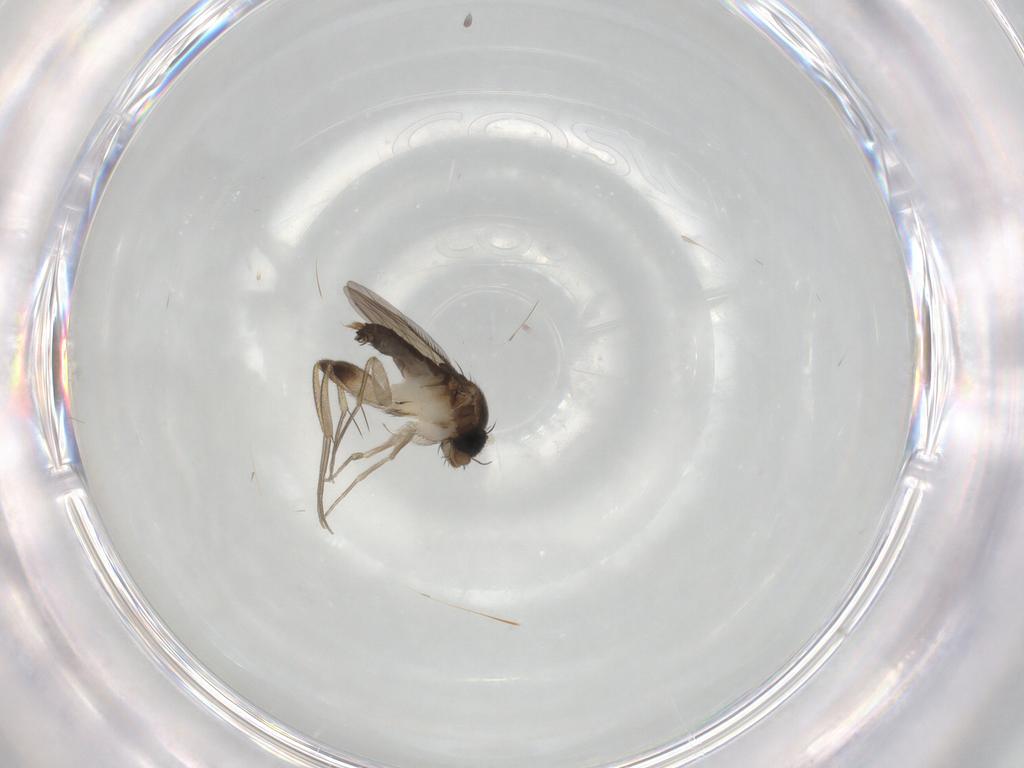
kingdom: Animalia
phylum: Arthropoda
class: Insecta
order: Diptera
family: Phoridae
